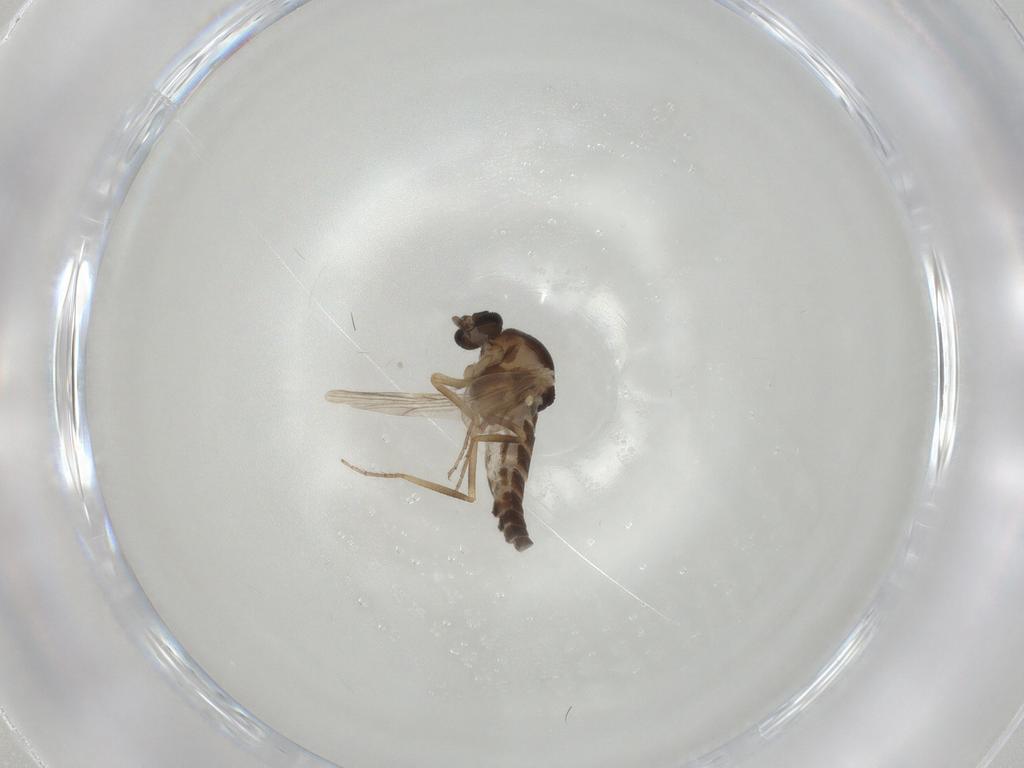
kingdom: Animalia
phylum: Arthropoda
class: Insecta
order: Diptera
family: Ceratopogonidae
